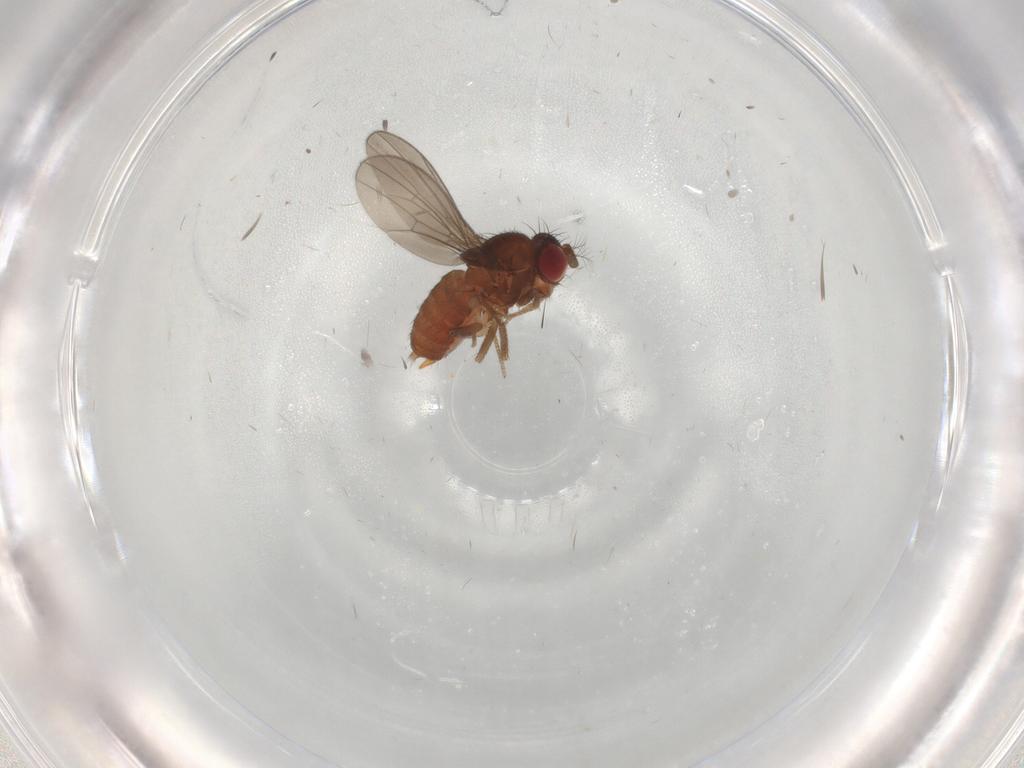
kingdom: Animalia
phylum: Arthropoda
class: Insecta
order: Diptera
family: Drosophilidae
